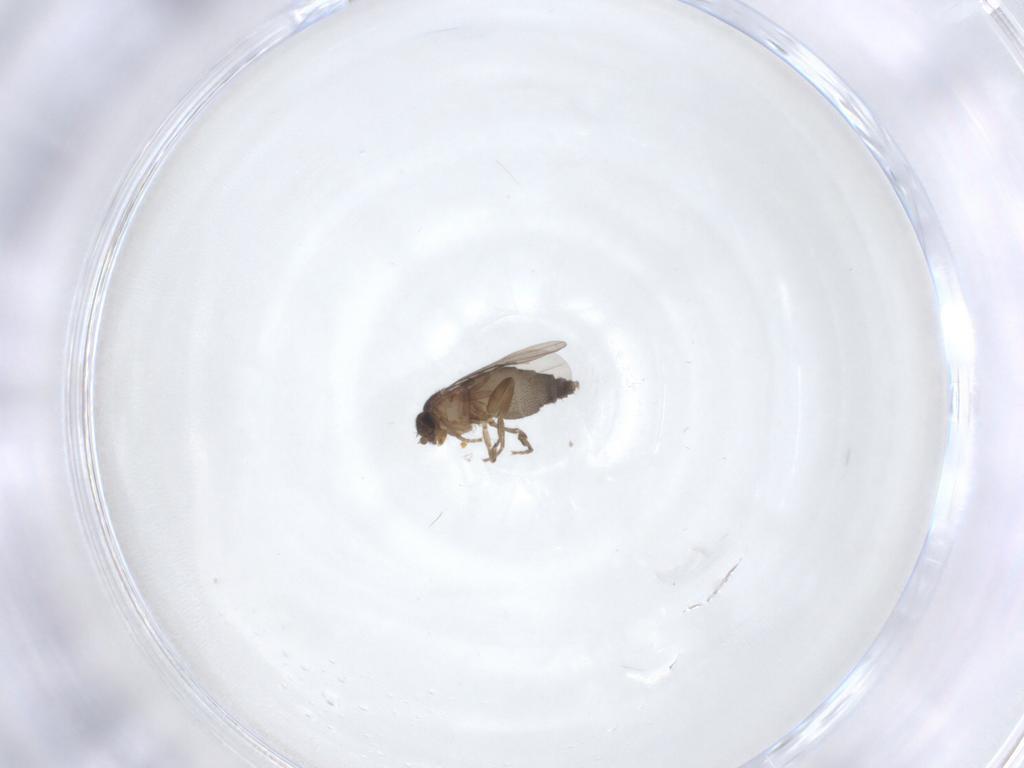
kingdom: Animalia
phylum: Arthropoda
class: Insecta
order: Diptera
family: Phoridae
